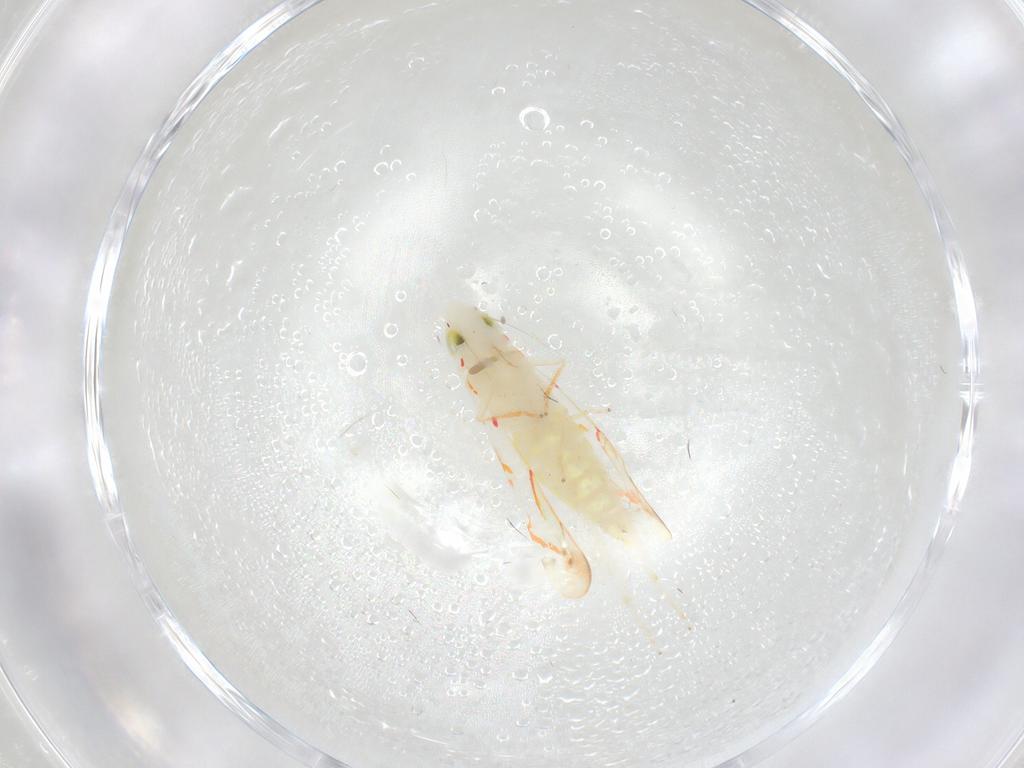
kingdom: Animalia
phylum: Arthropoda
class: Insecta
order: Hemiptera
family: Cicadellidae
